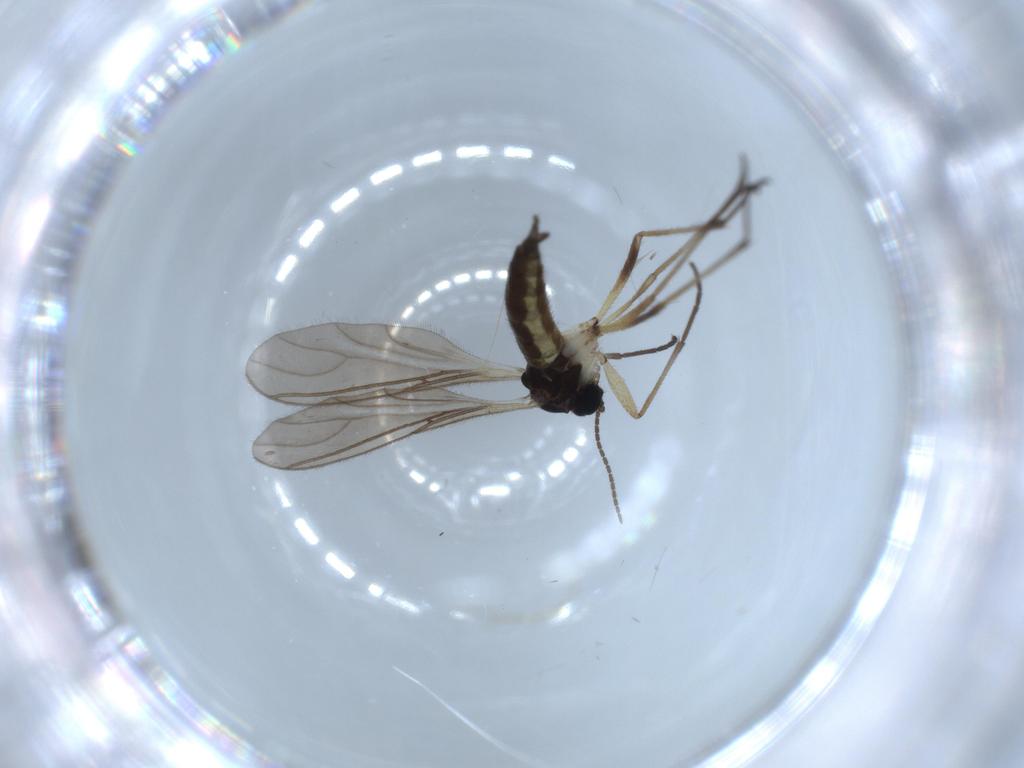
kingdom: Animalia
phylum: Arthropoda
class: Insecta
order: Diptera
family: Sciaridae
